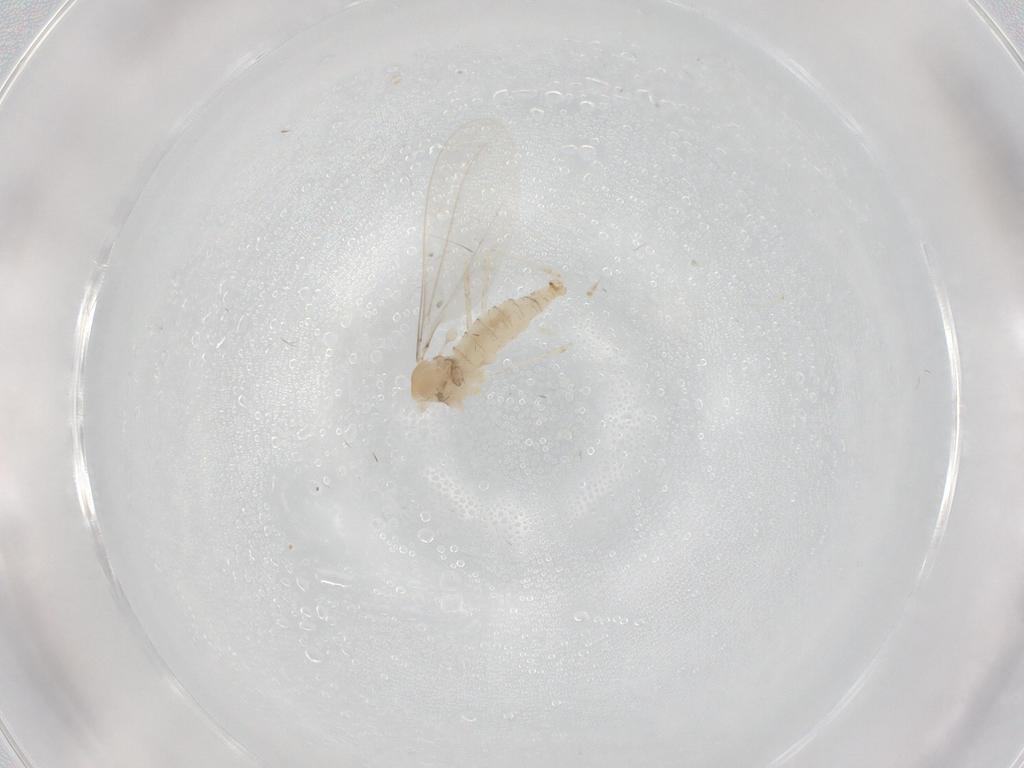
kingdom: Animalia
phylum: Arthropoda
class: Insecta
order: Diptera
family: Cecidomyiidae
